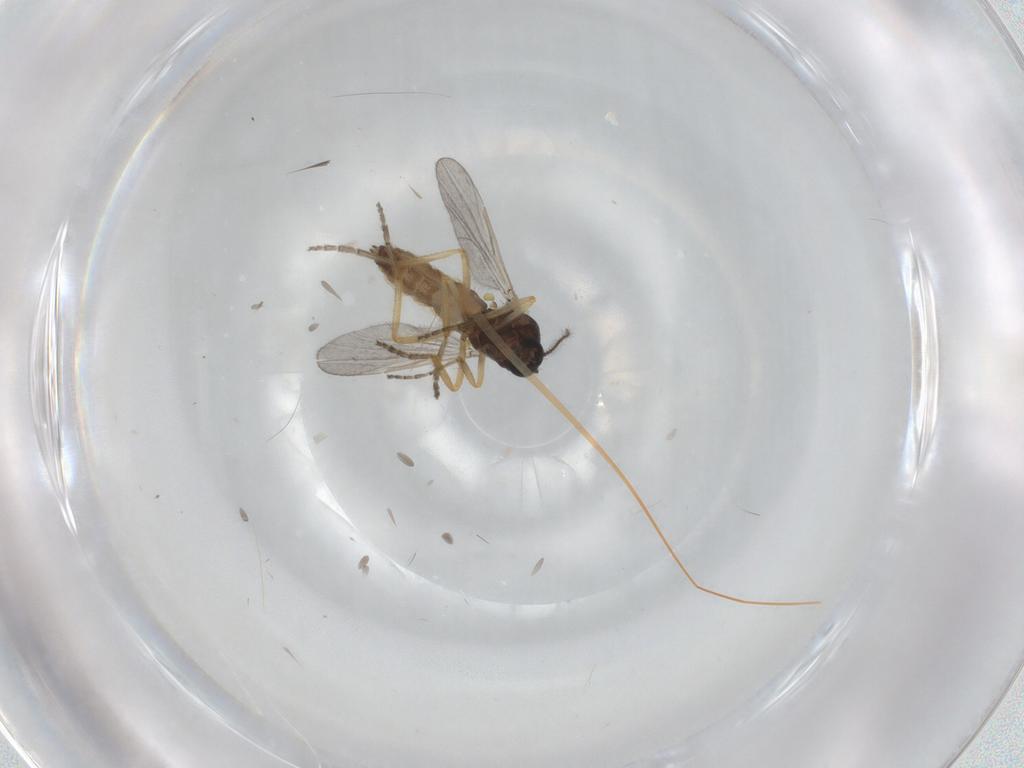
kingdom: Animalia
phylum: Arthropoda
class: Insecta
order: Diptera
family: Ceratopogonidae
